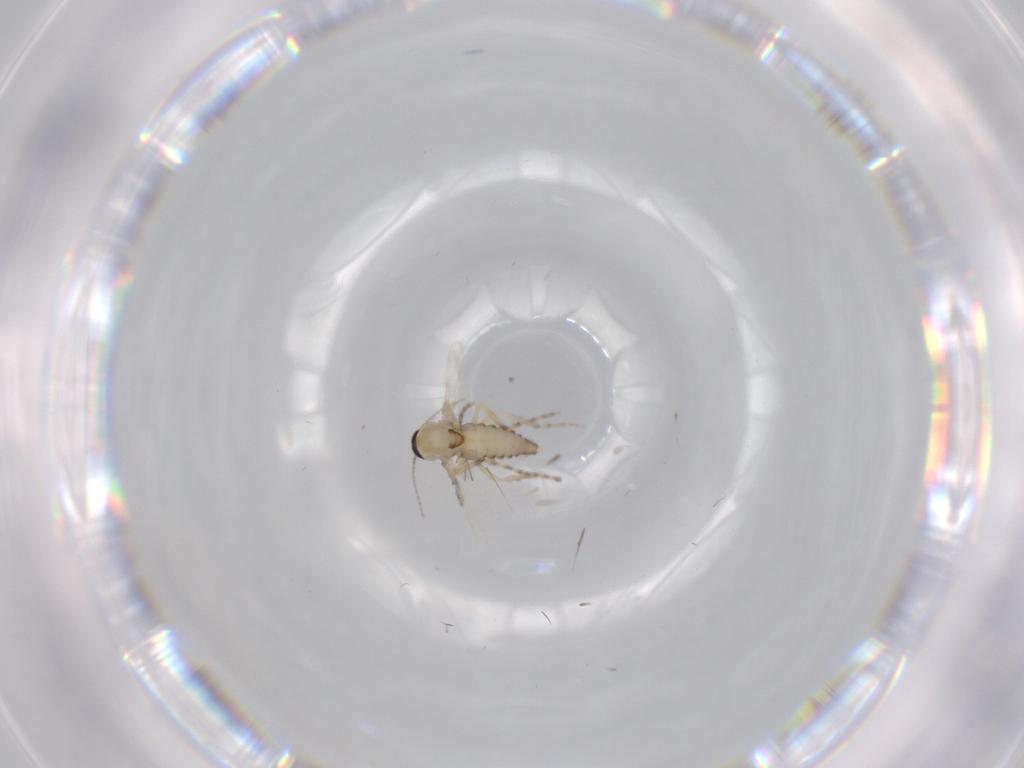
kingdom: Animalia
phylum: Arthropoda
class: Insecta
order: Diptera
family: Ceratopogonidae
